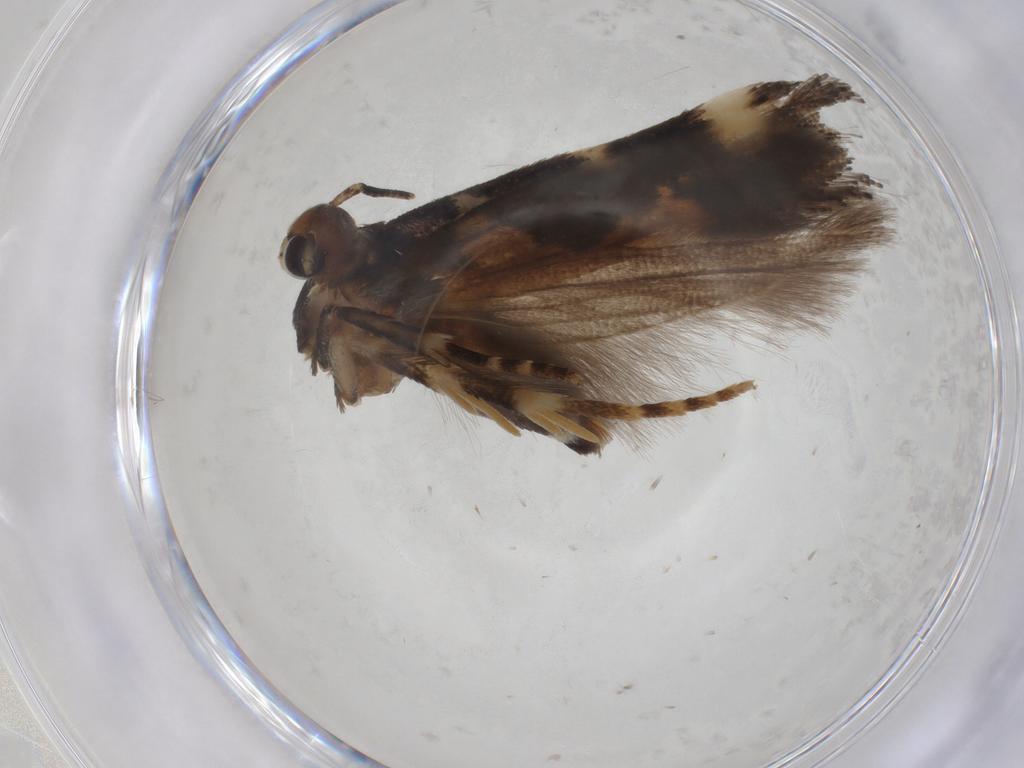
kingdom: Animalia
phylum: Arthropoda
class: Insecta
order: Lepidoptera
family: Gelechiidae
